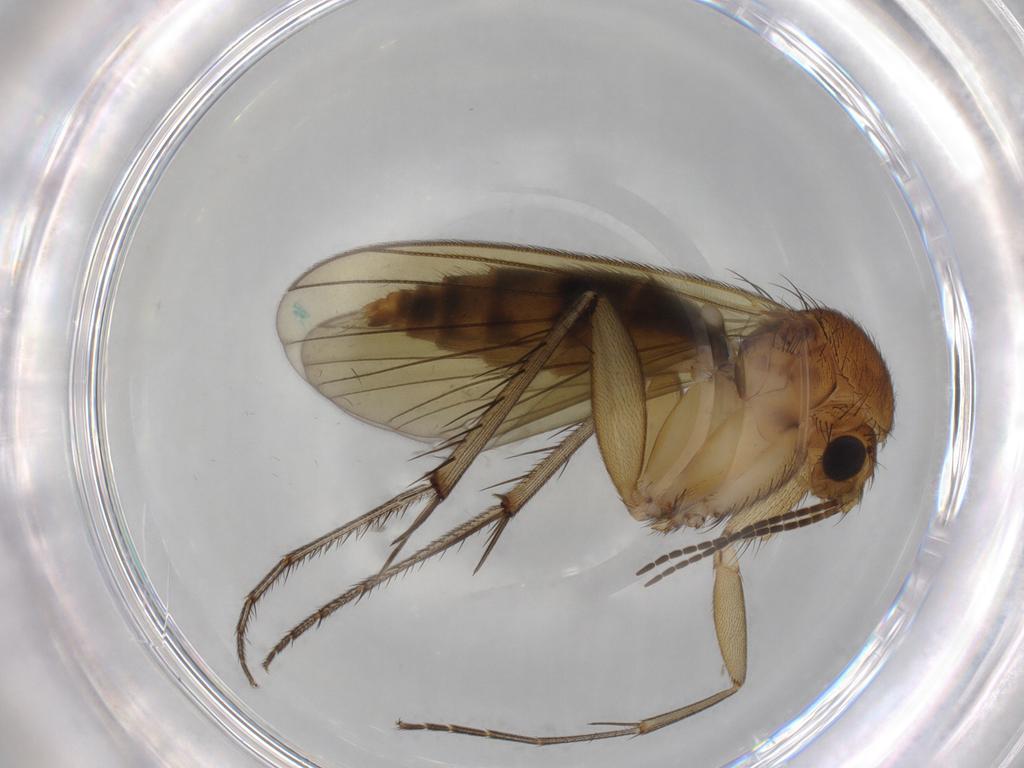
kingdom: Animalia
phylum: Arthropoda
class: Insecta
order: Diptera
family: Mycetophilidae
